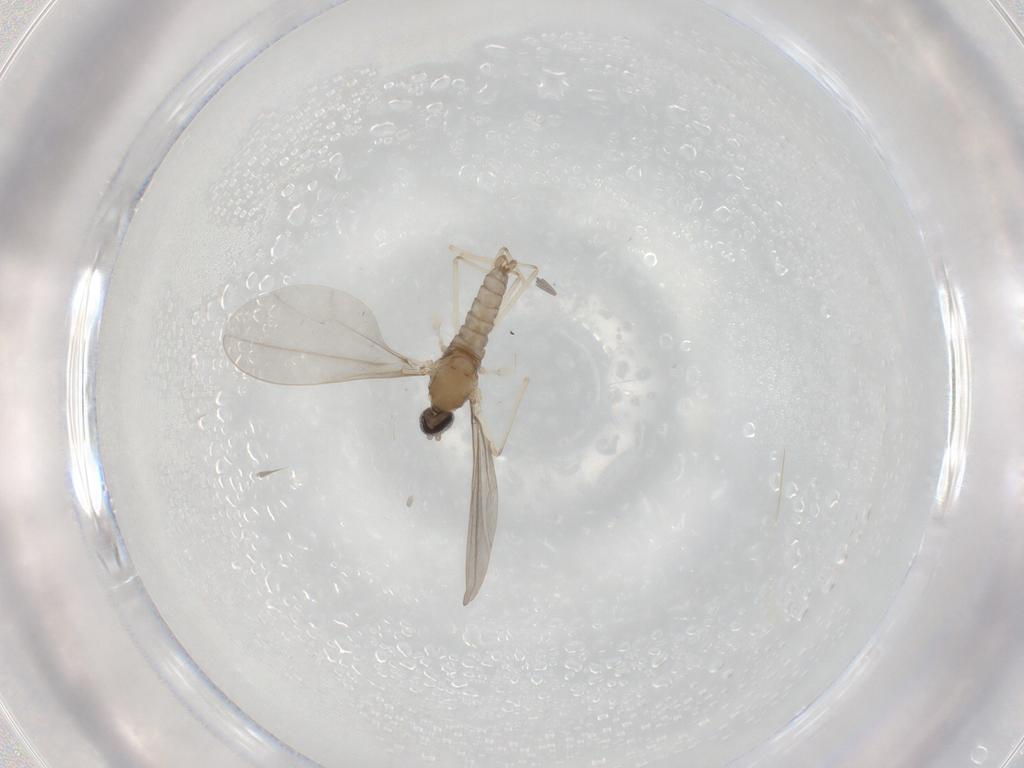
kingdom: Animalia
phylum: Arthropoda
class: Insecta
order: Diptera
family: Cecidomyiidae
